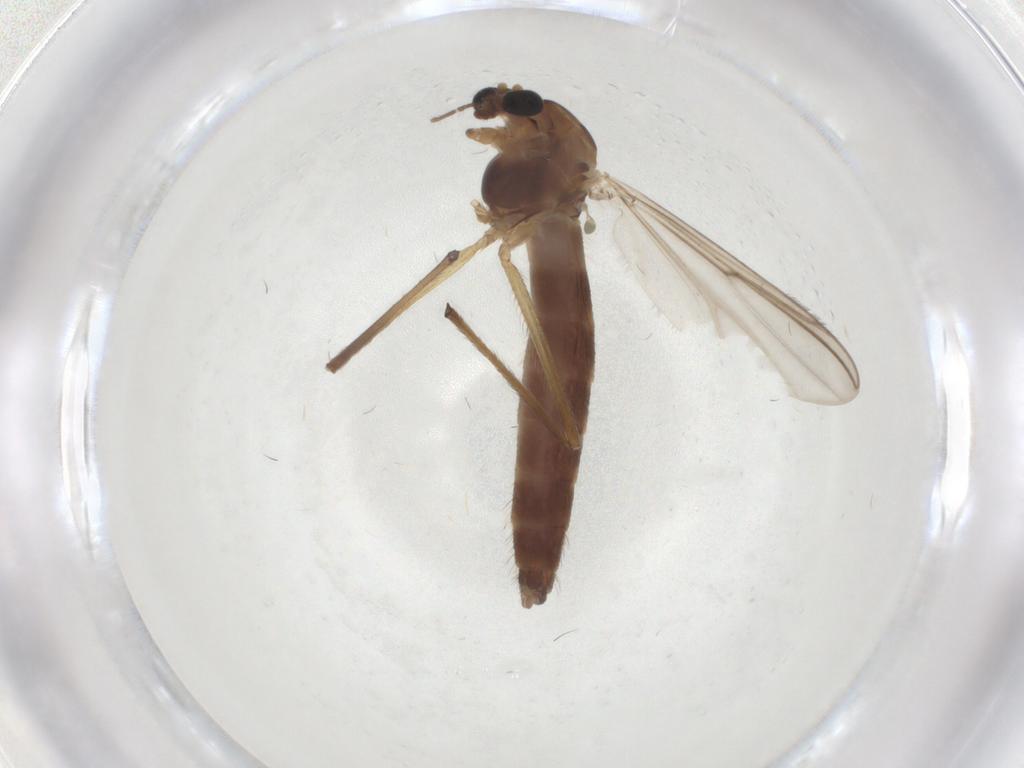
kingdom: Animalia
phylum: Arthropoda
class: Insecta
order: Diptera
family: Chironomidae
